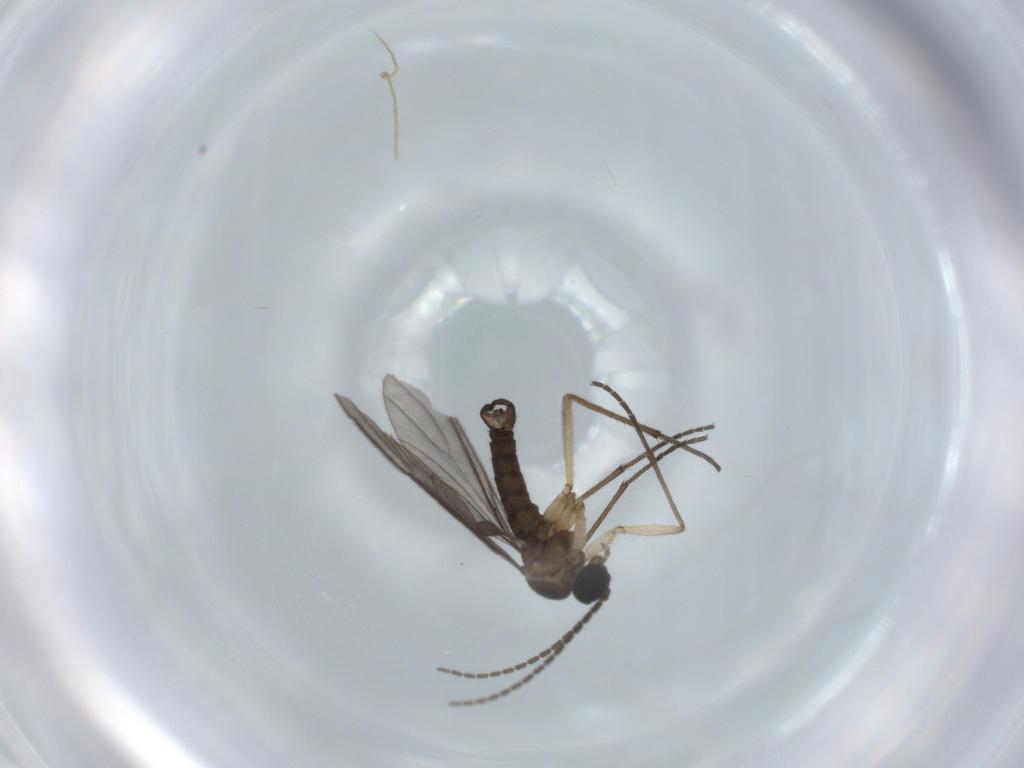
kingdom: Animalia
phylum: Arthropoda
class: Insecta
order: Diptera
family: Sciaridae
